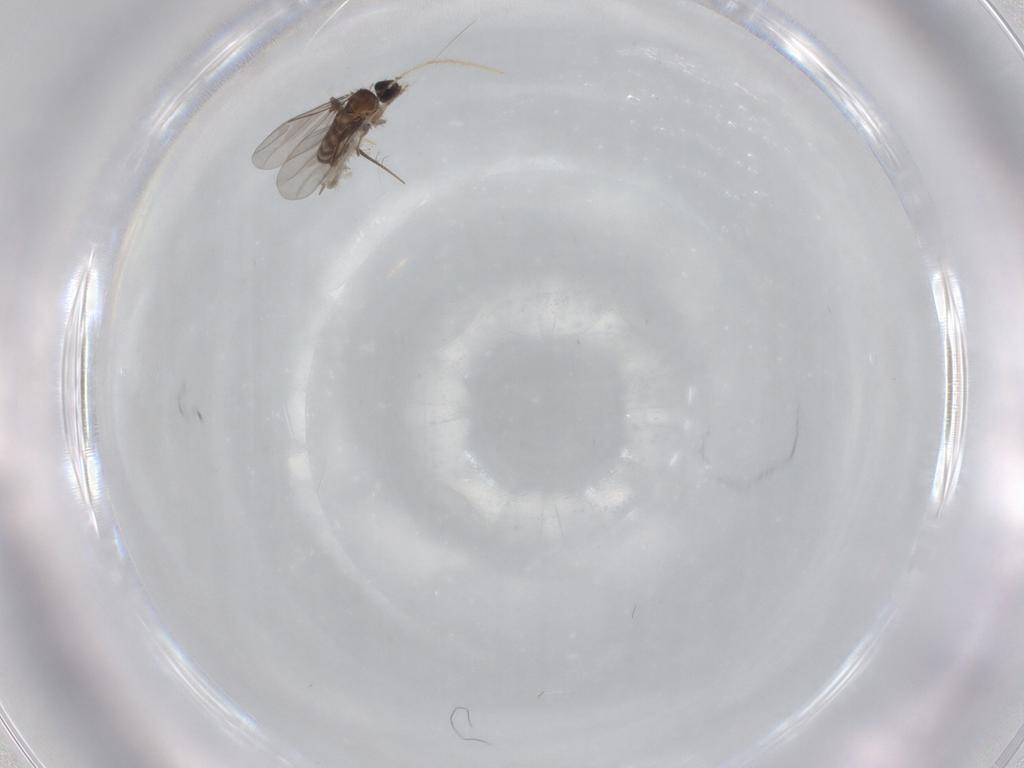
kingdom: Animalia
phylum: Arthropoda
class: Insecta
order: Diptera
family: Chironomidae
